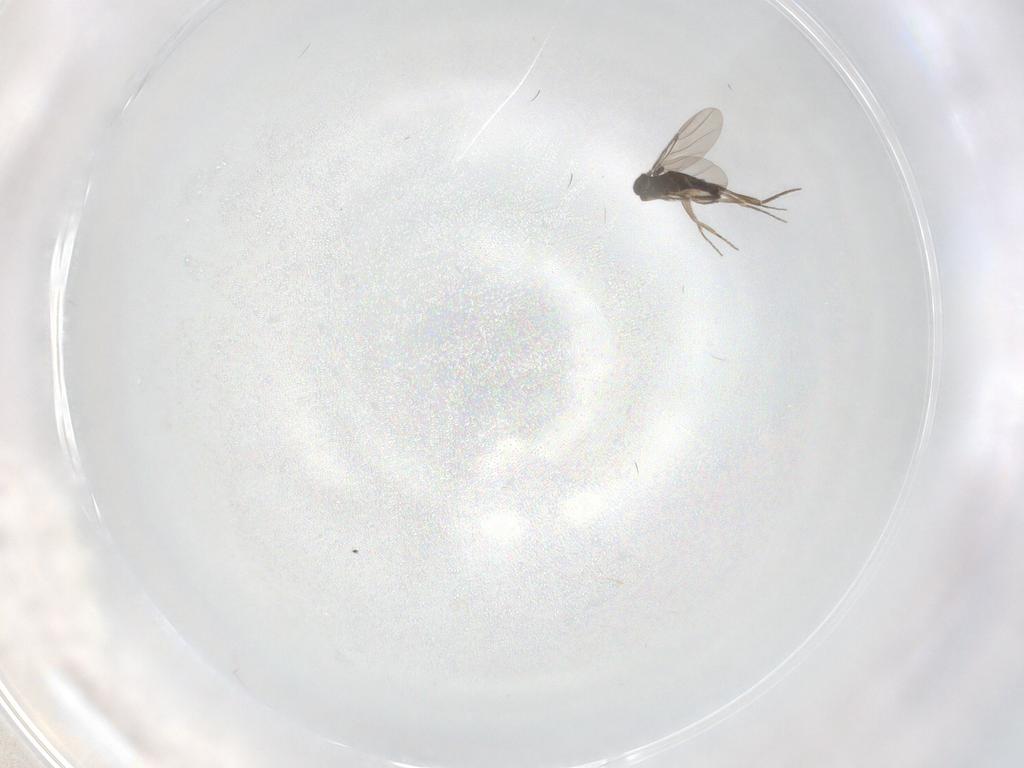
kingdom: Animalia
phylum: Arthropoda
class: Insecta
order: Diptera
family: Phoridae
